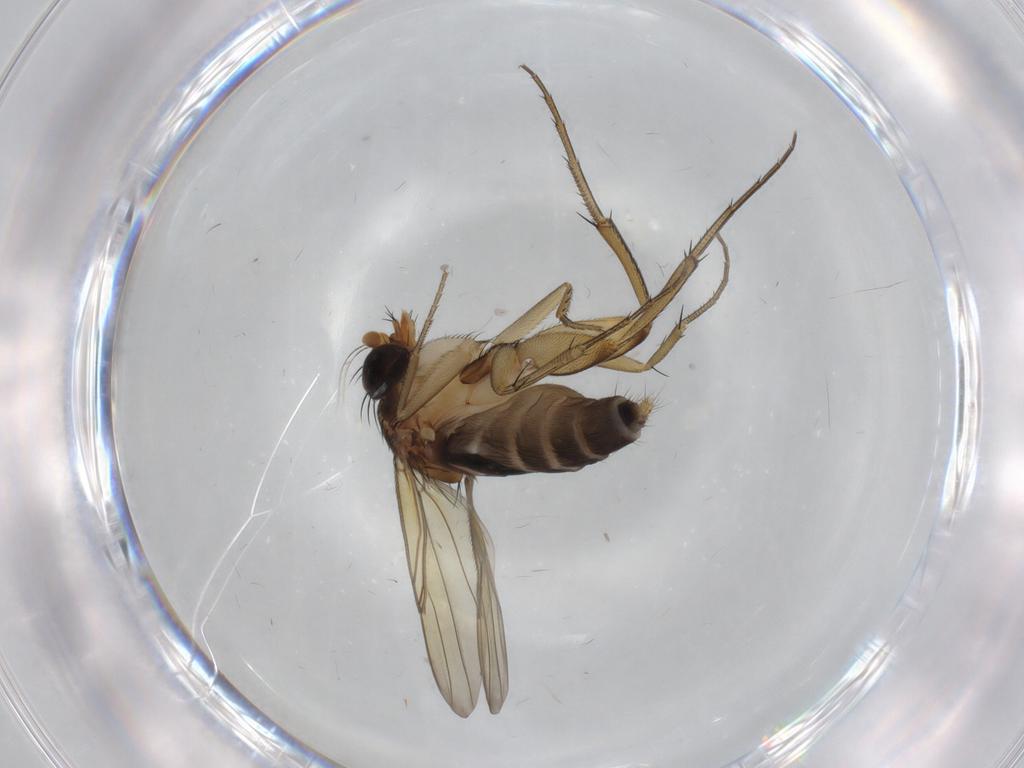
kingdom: Animalia
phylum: Arthropoda
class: Insecta
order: Diptera
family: Phoridae
